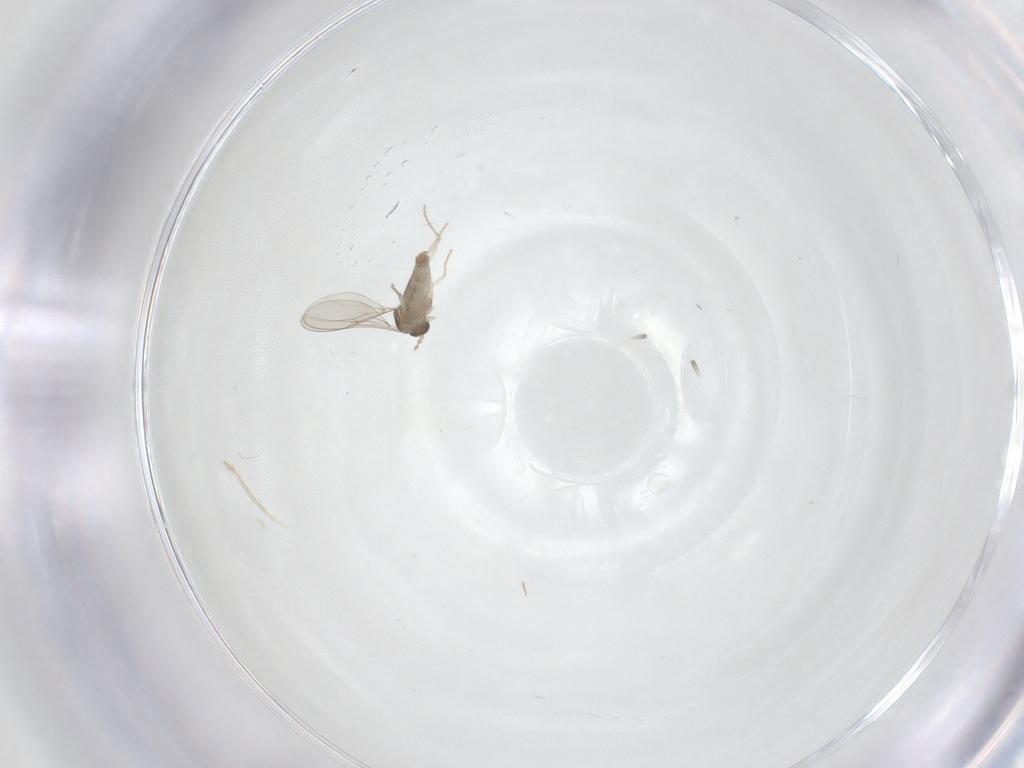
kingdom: Animalia
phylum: Arthropoda
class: Insecta
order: Diptera
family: Cecidomyiidae
